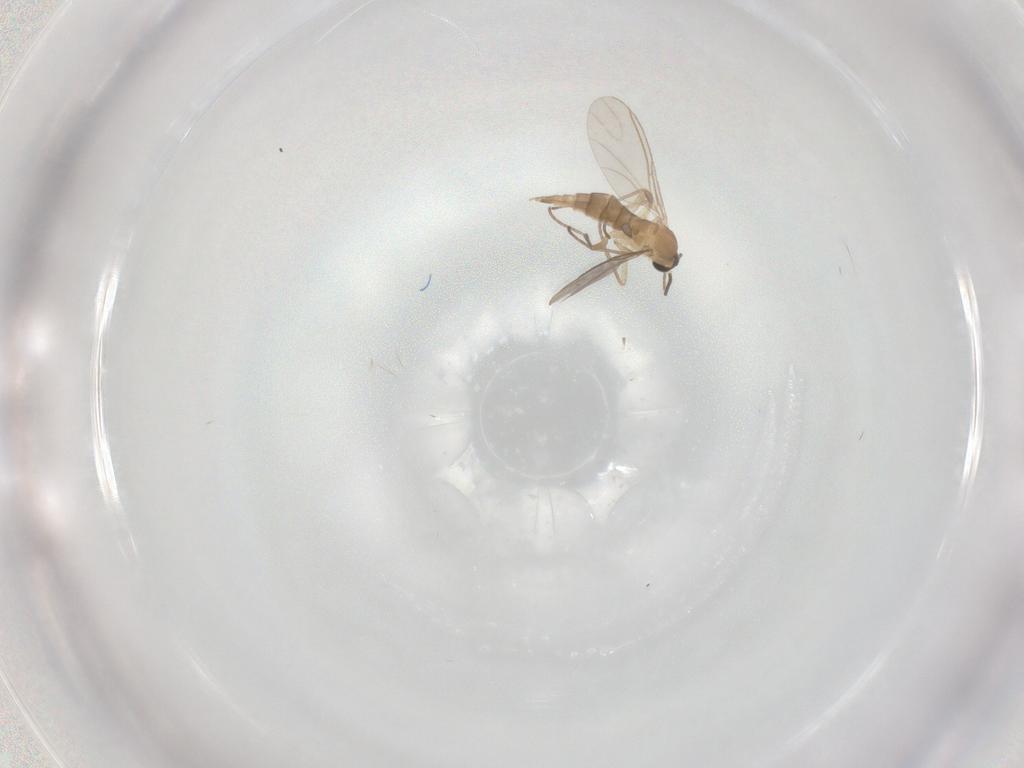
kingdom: Animalia
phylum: Arthropoda
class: Insecta
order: Diptera
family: Sciaridae
